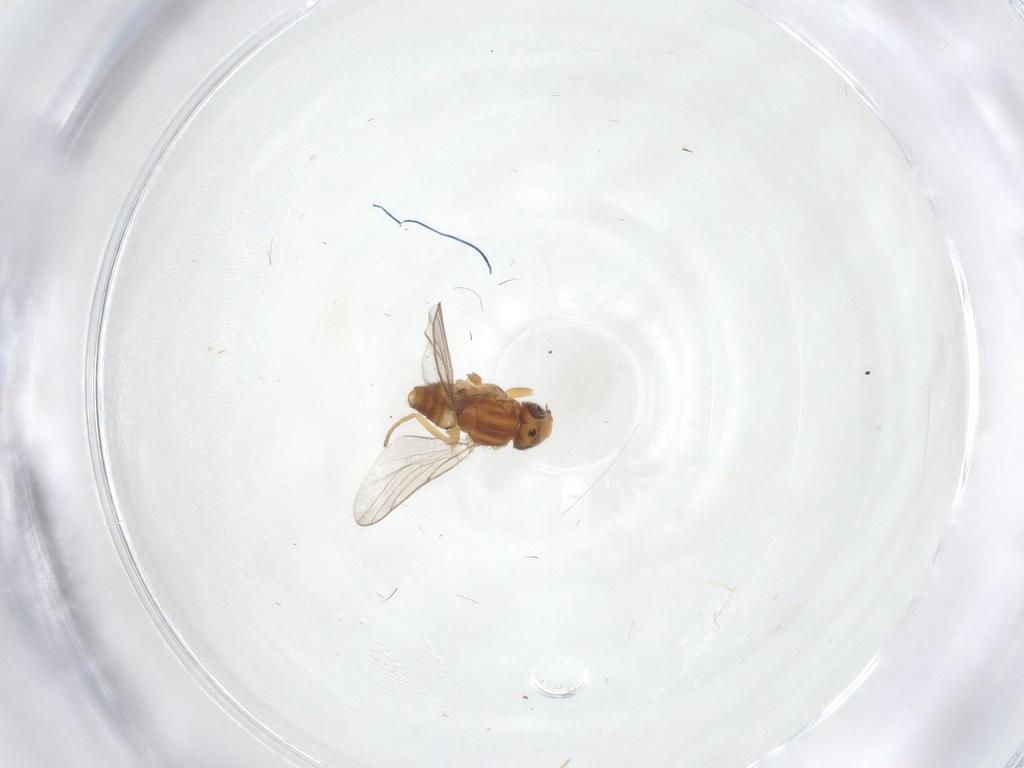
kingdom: Animalia
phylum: Arthropoda
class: Insecta
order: Diptera
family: Chloropidae
